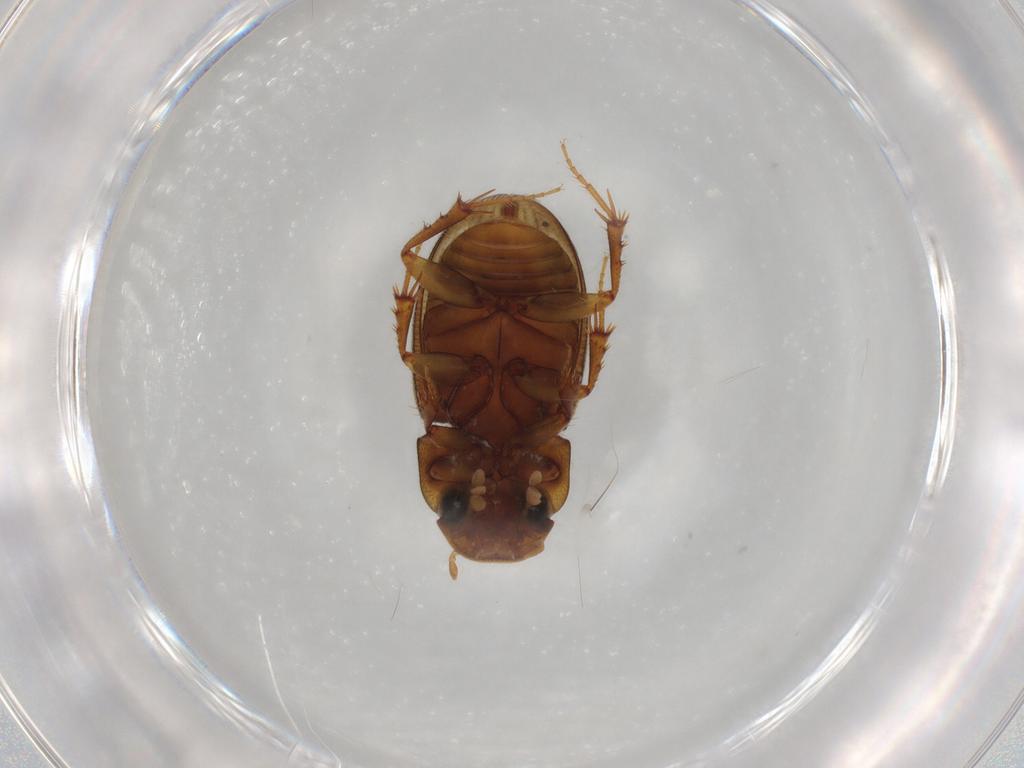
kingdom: Animalia
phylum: Arthropoda
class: Insecta
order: Coleoptera
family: Scarabaeidae
